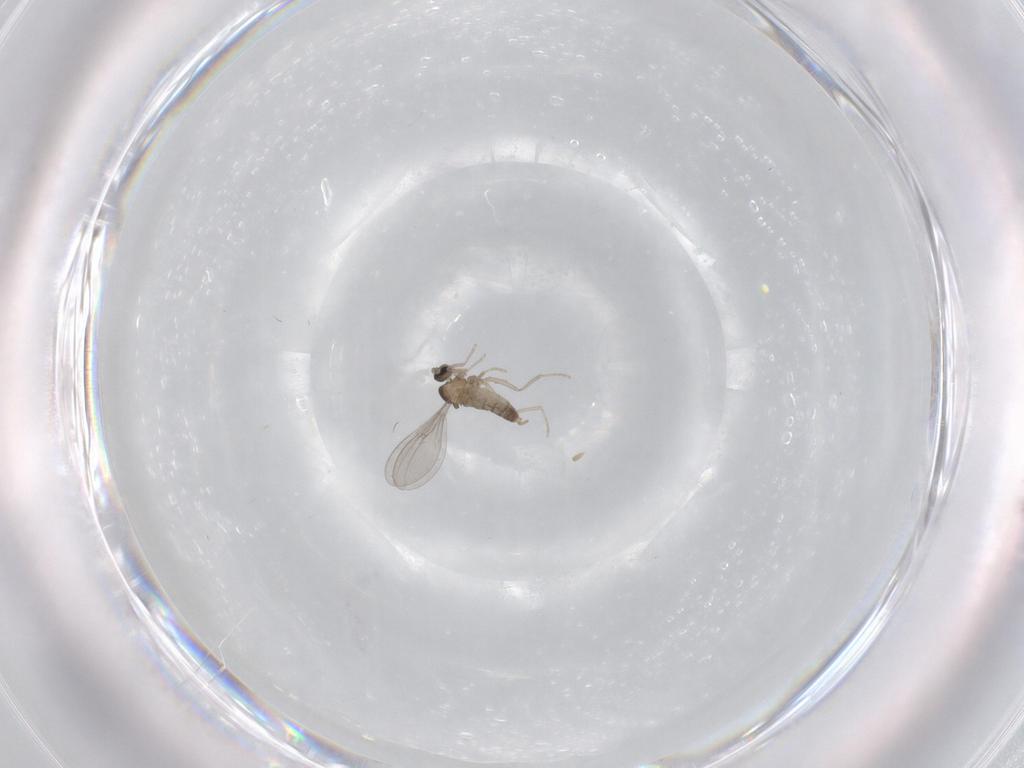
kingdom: Animalia
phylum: Arthropoda
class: Insecta
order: Diptera
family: Cecidomyiidae
